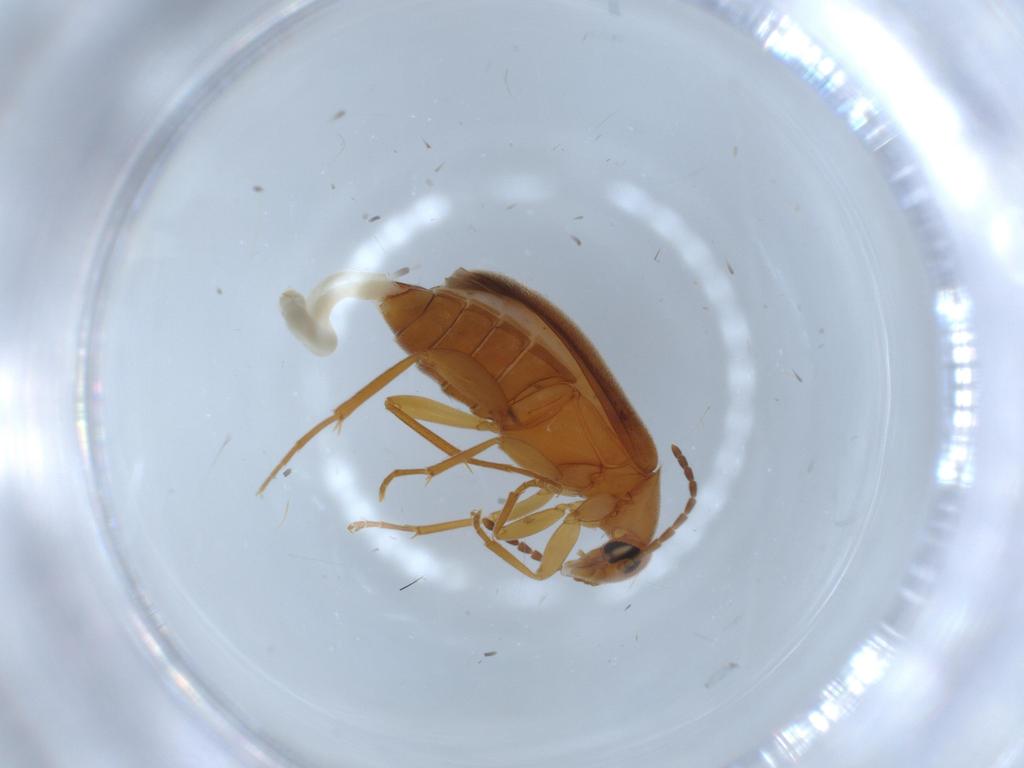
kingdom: Animalia
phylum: Arthropoda
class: Insecta
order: Coleoptera
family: Scraptiidae
